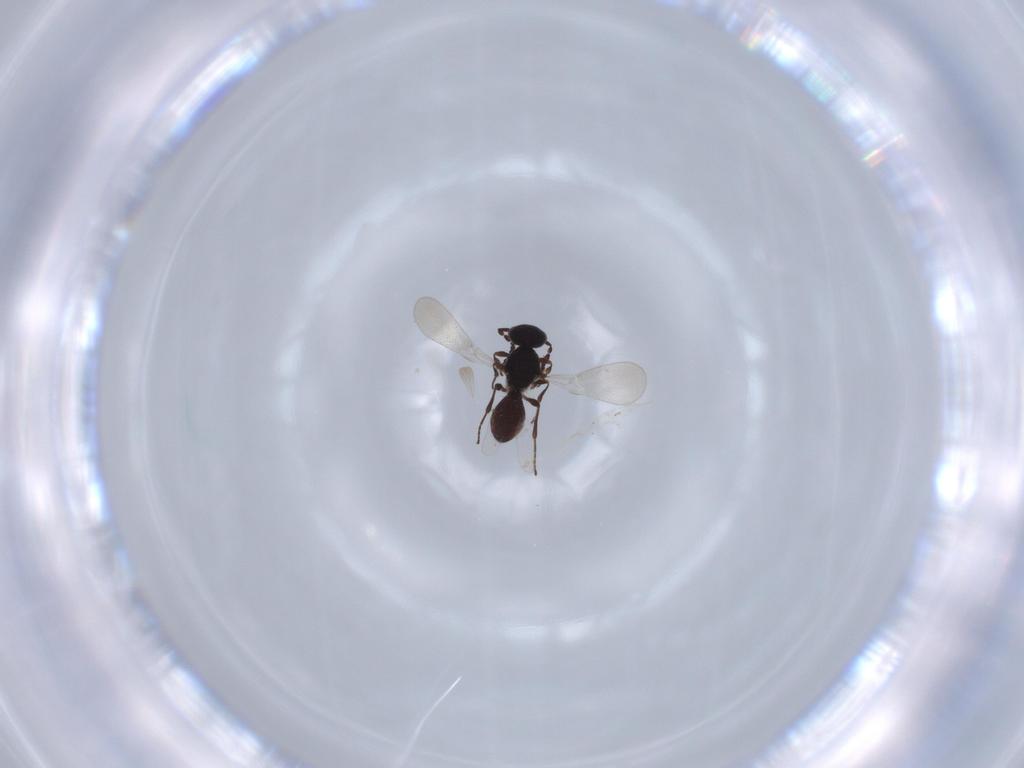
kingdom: Animalia
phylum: Arthropoda
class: Insecta
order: Diptera
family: Mythicomyiidae
